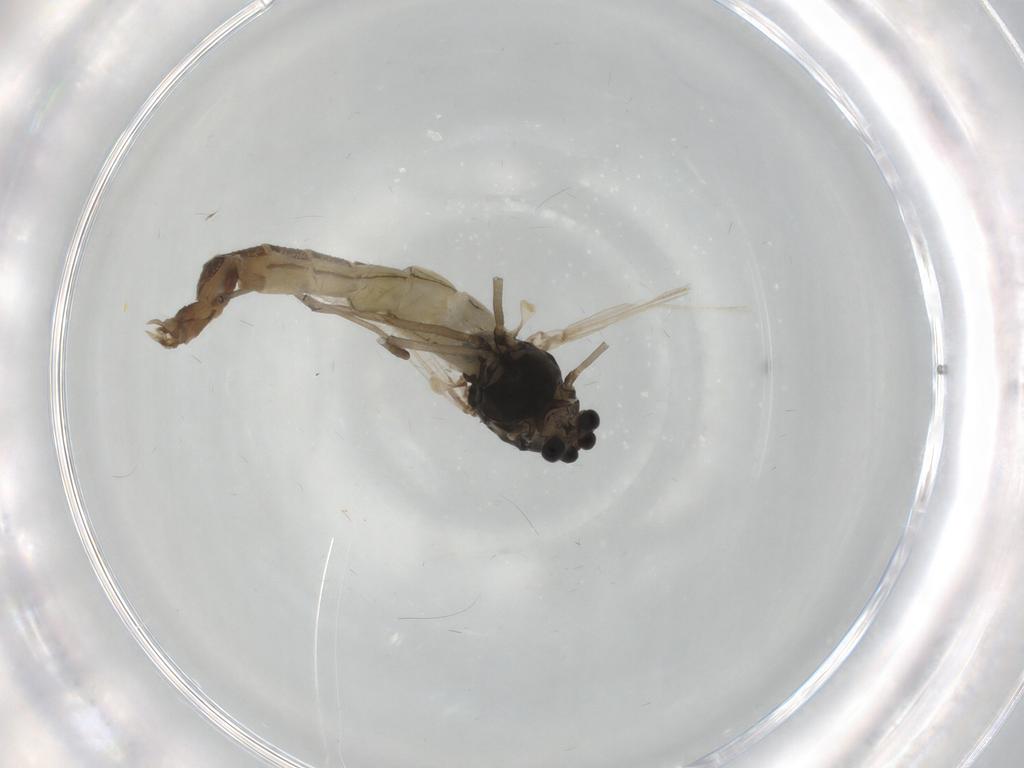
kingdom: Animalia
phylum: Arthropoda
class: Insecta
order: Diptera
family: Chironomidae
